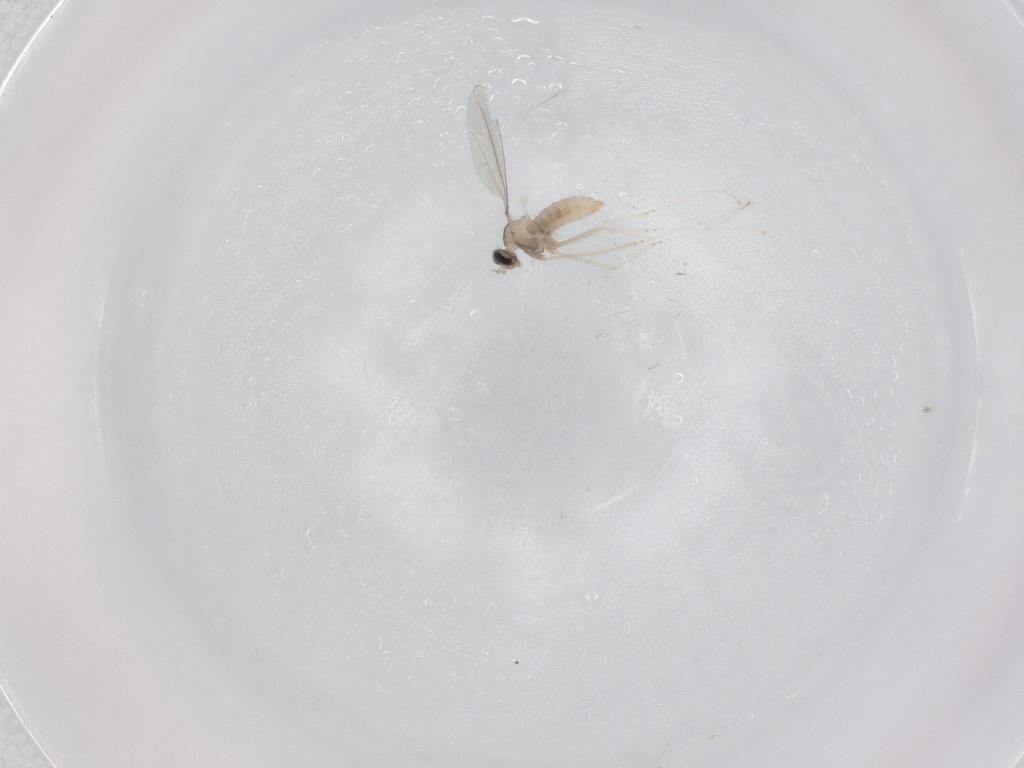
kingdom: Animalia
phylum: Arthropoda
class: Insecta
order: Diptera
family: Cecidomyiidae
